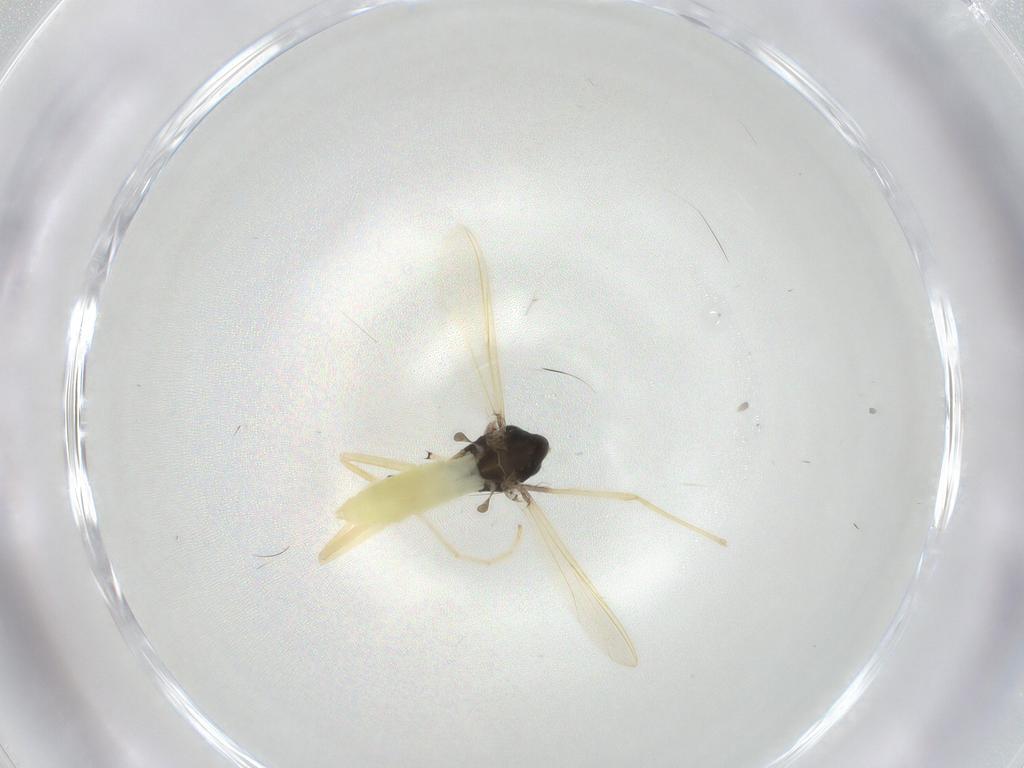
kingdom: Animalia
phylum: Arthropoda
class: Insecta
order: Diptera
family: Chironomidae
